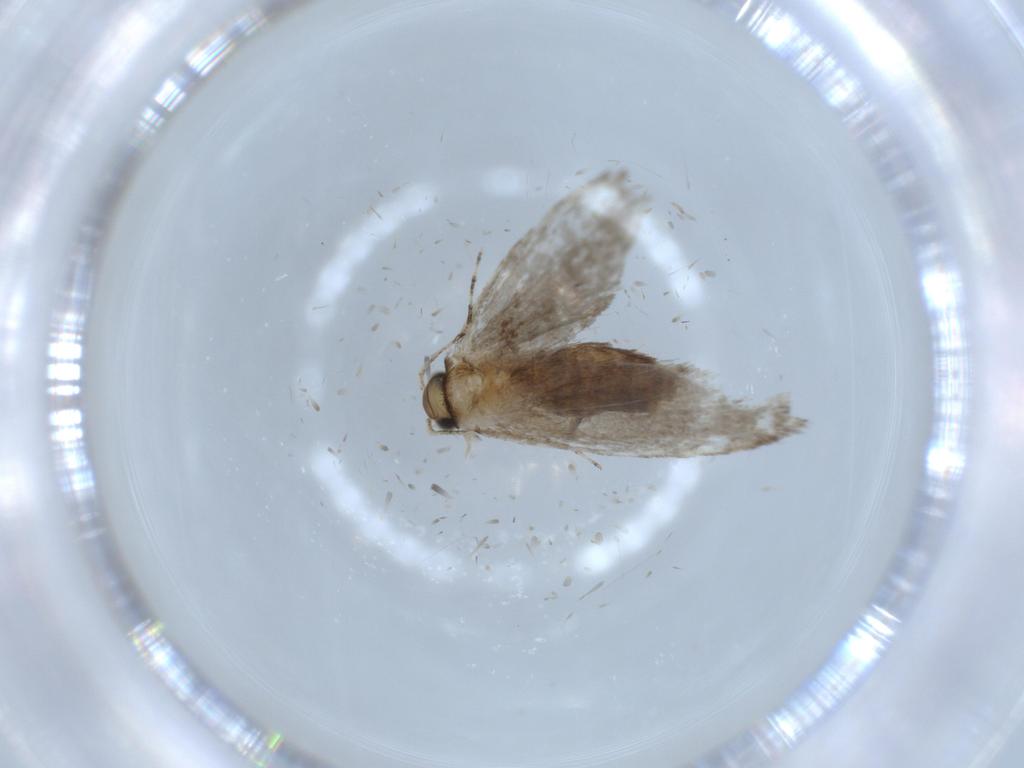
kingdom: Animalia
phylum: Arthropoda
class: Insecta
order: Lepidoptera
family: Tineidae
